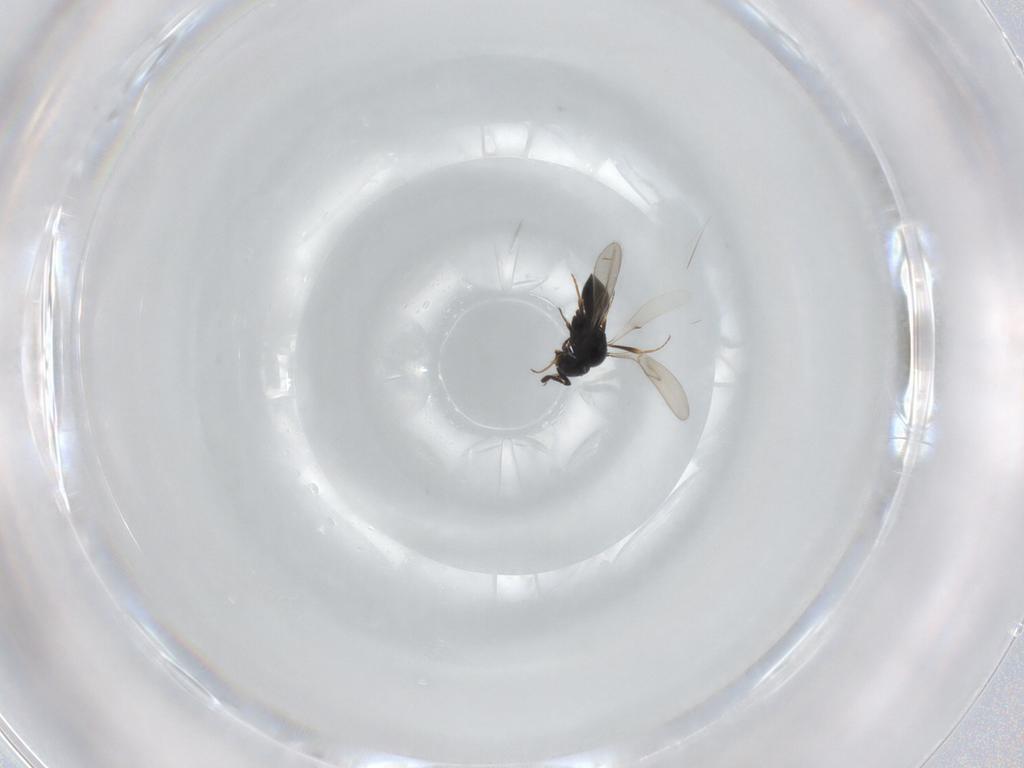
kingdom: Animalia
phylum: Arthropoda
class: Insecta
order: Hymenoptera
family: Scelionidae
